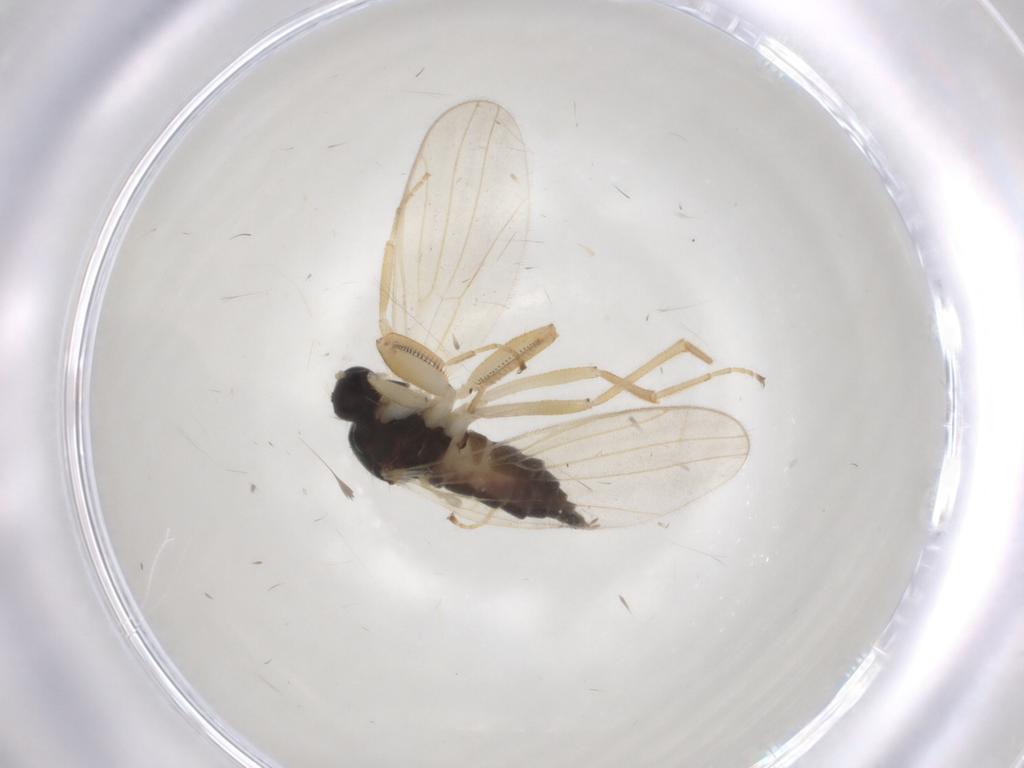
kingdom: Animalia
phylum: Arthropoda
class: Insecta
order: Diptera
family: Hybotidae
